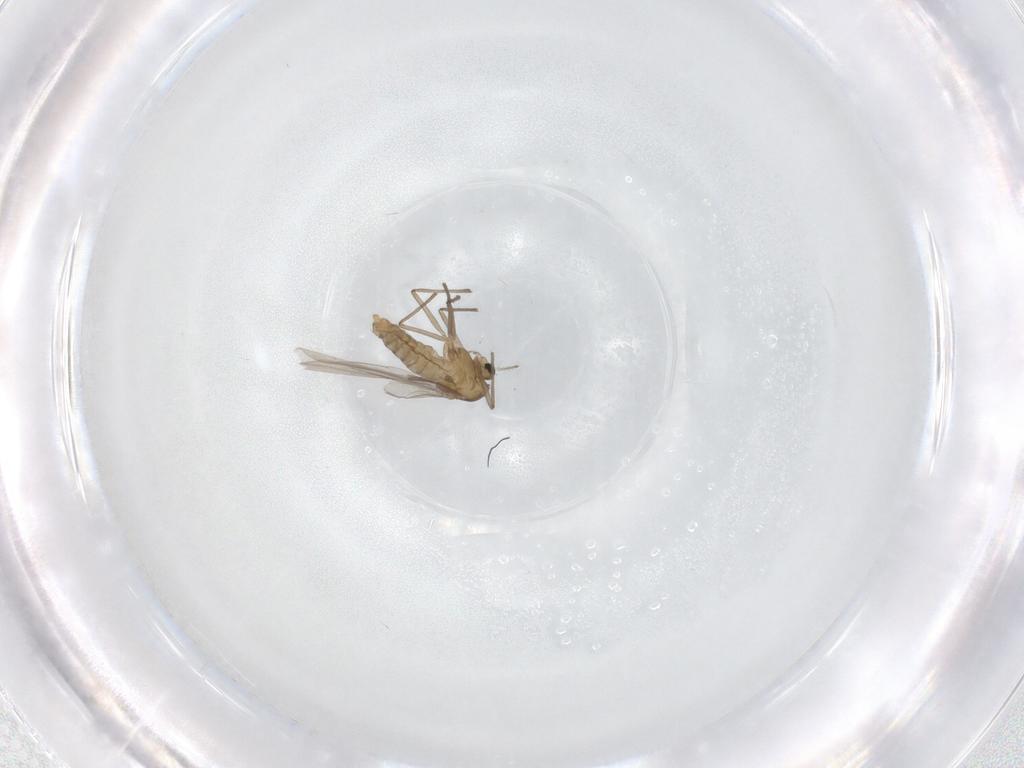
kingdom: Animalia
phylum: Arthropoda
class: Insecta
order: Diptera
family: Chironomidae
